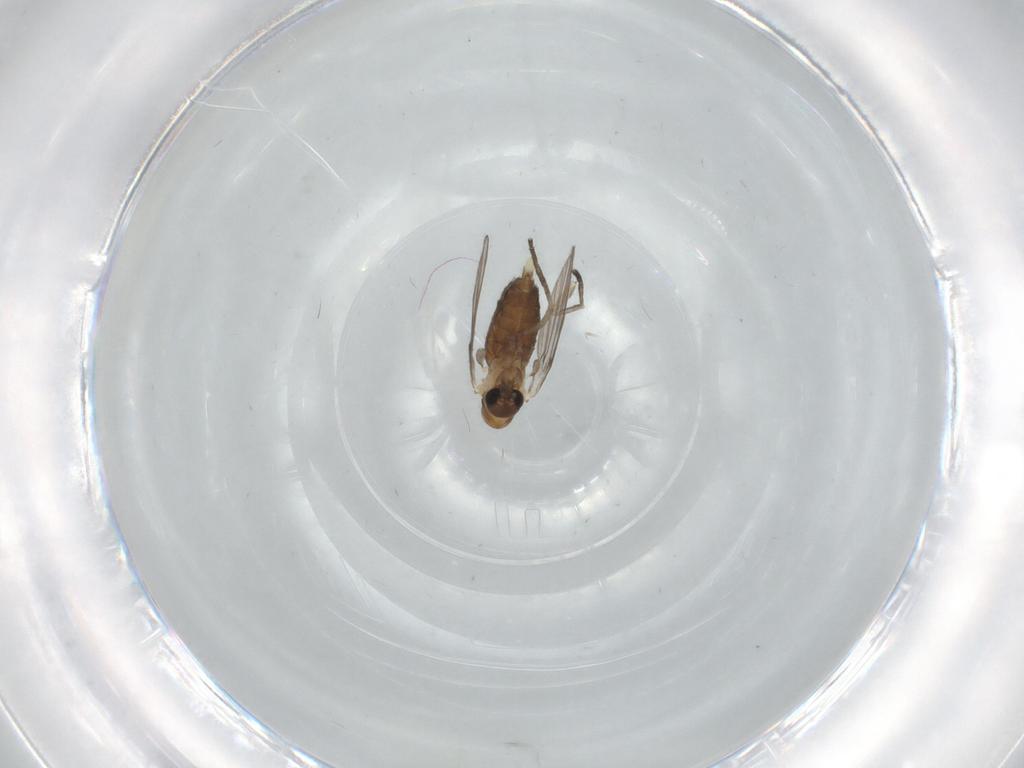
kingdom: Animalia
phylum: Arthropoda
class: Insecta
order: Diptera
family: Psychodidae
